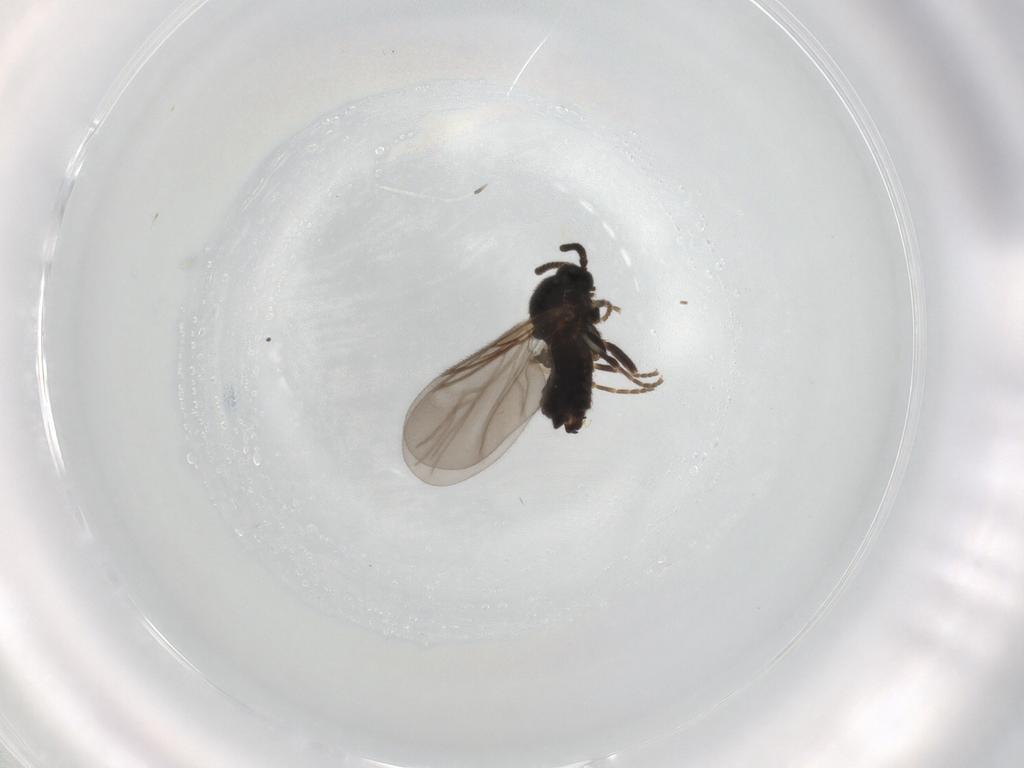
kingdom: Animalia
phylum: Arthropoda
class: Insecta
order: Diptera
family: Scatopsidae
